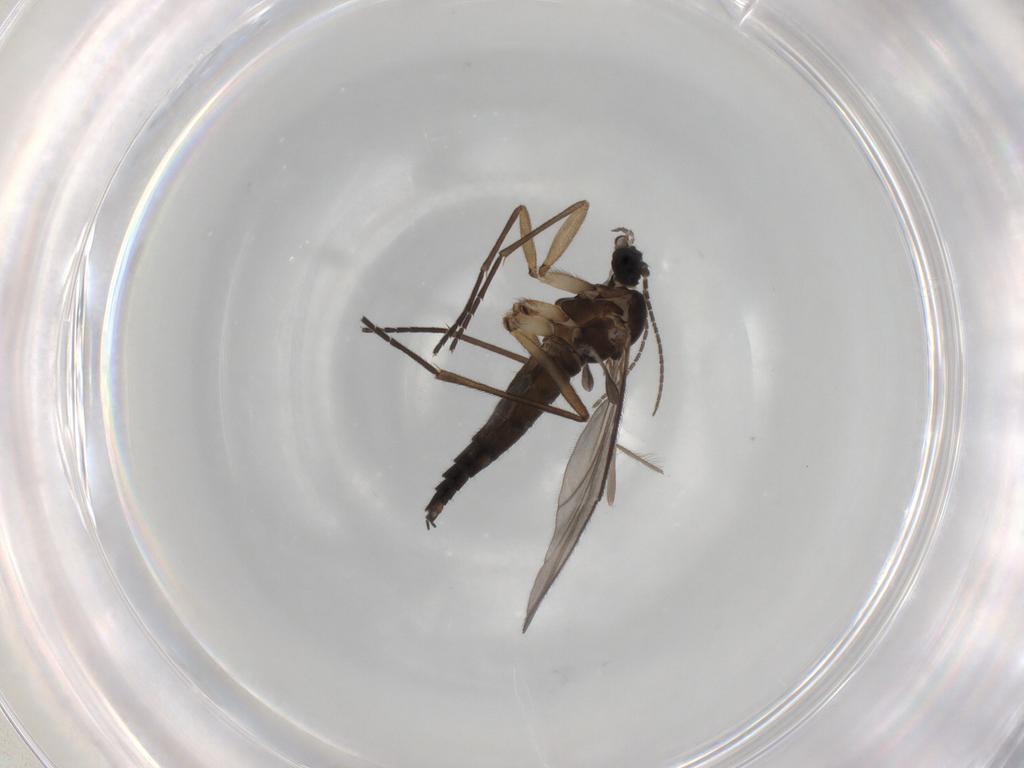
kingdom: Animalia
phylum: Arthropoda
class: Insecta
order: Diptera
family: Sciaridae
